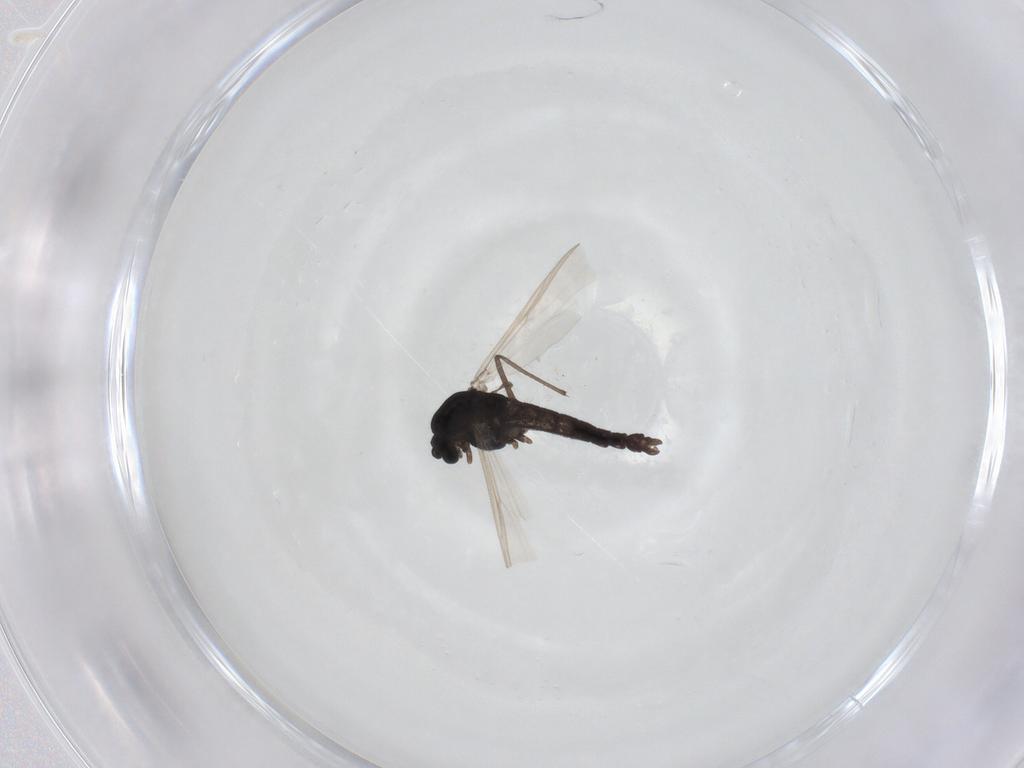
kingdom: Animalia
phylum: Arthropoda
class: Insecta
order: Diptera
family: Chironomidae
